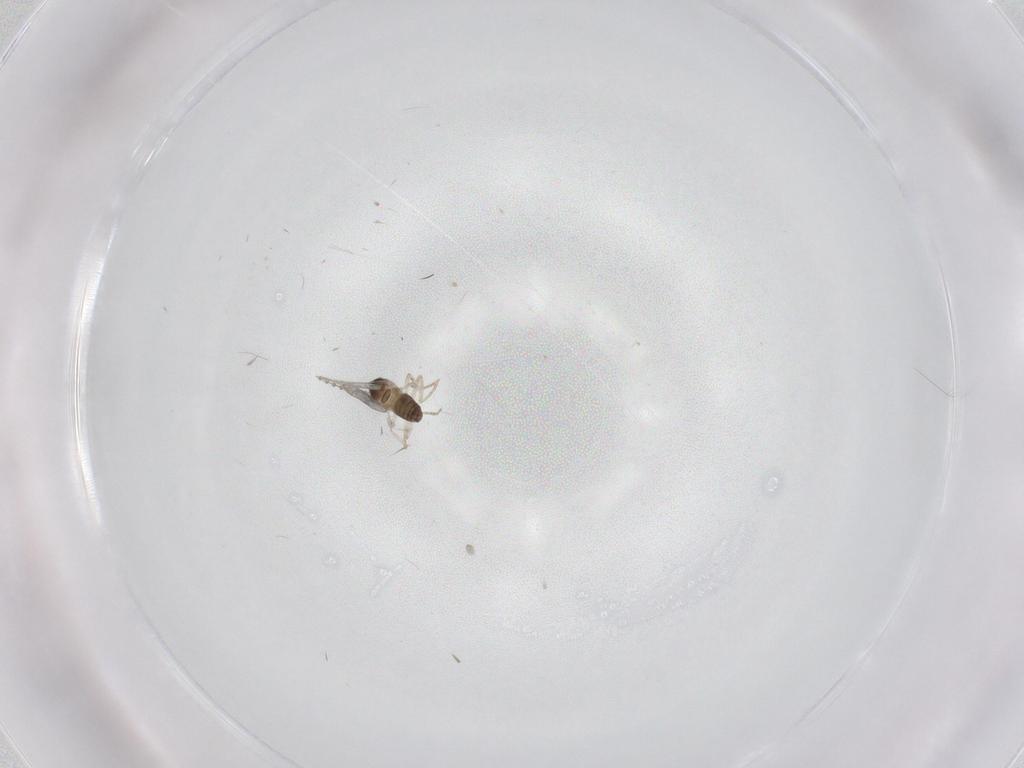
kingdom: Animalia
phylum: Arthropoda
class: Insecta
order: Diptera
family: Cecidomyiidae
